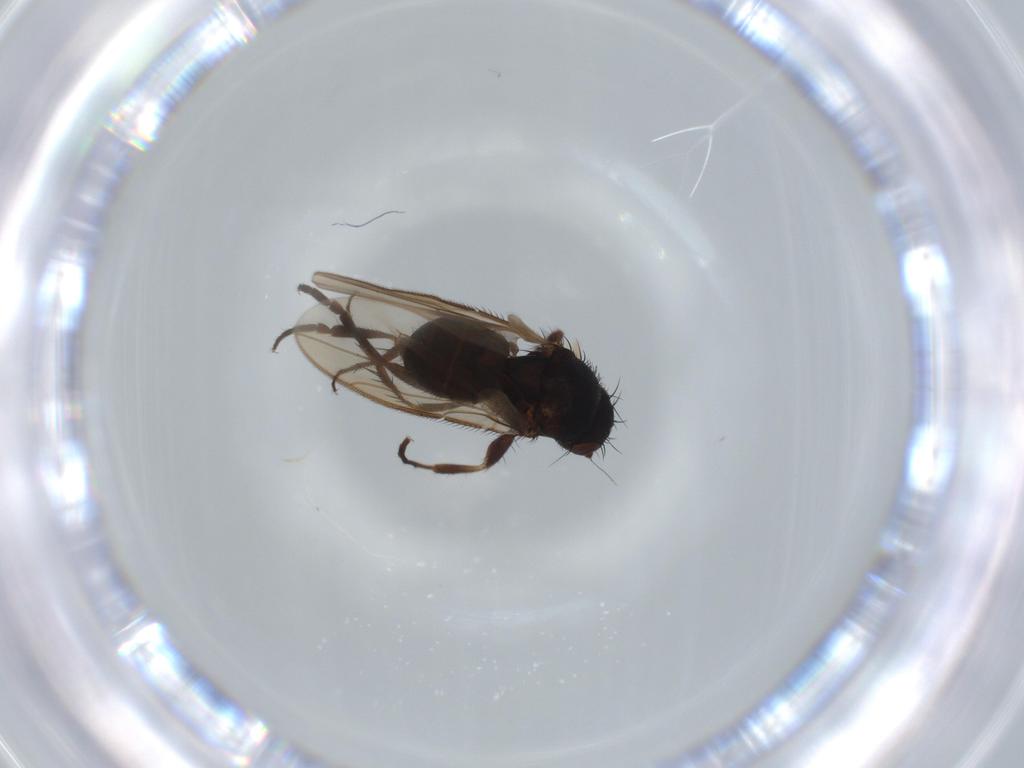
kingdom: Animalia
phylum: Arthropoda
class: Insecta
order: Diptera
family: Sphaeroceridae
